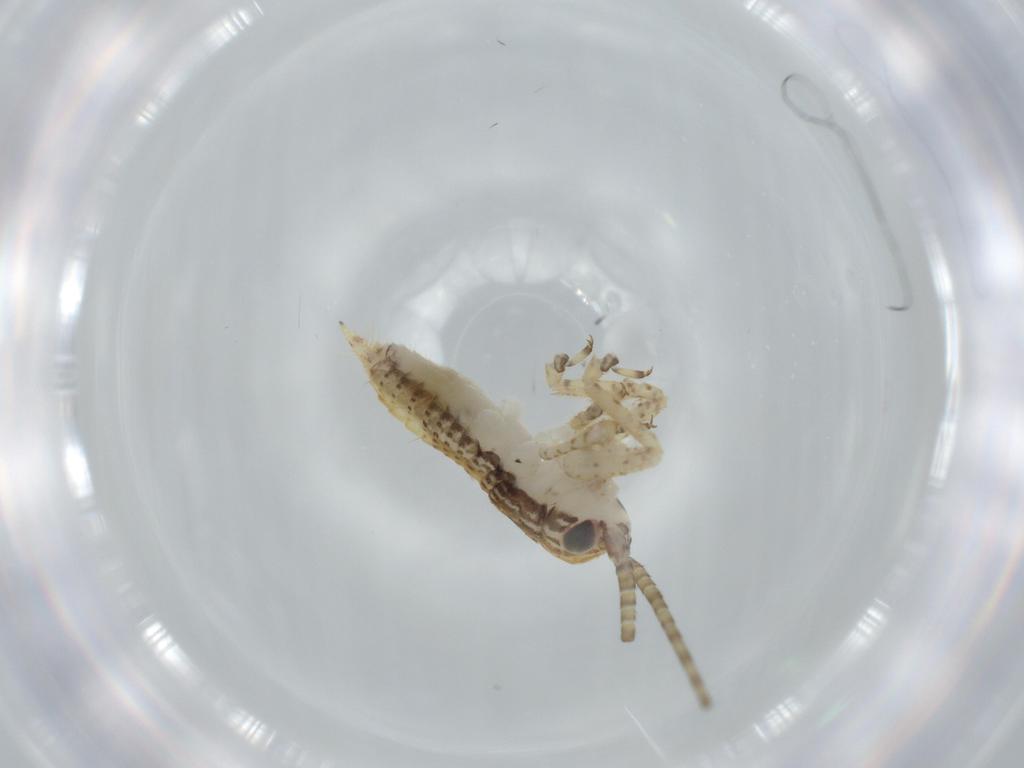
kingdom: Animalia
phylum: Arthropoda
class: Insecta
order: Orthoptera
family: Gryllidae
